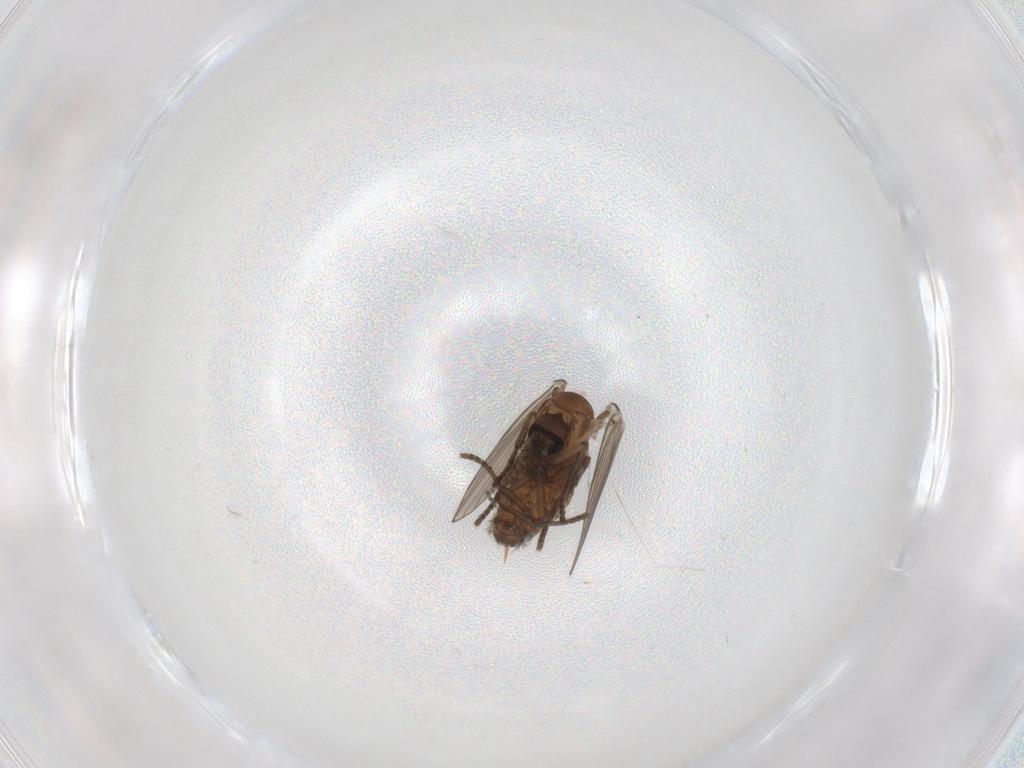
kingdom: Animalia
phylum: Arthropoda
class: Insecta
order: Diptera
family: Psychodidae
